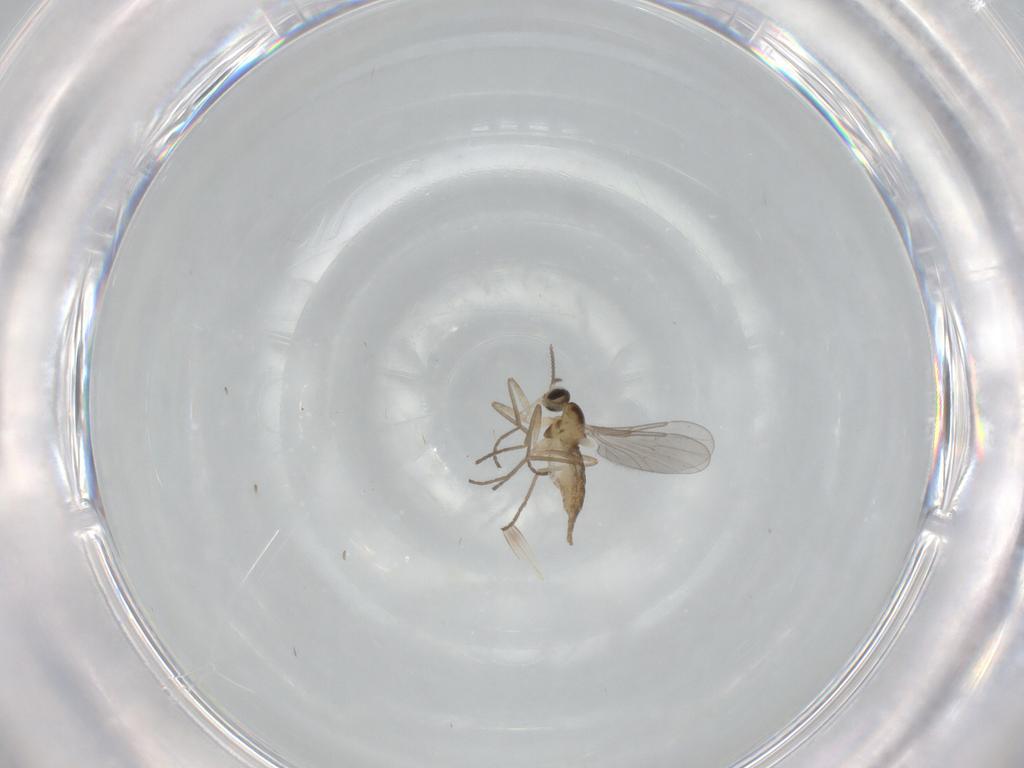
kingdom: Animalia
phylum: Arthropoda
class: Insecta
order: Diptera
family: Cecidomyiidae
